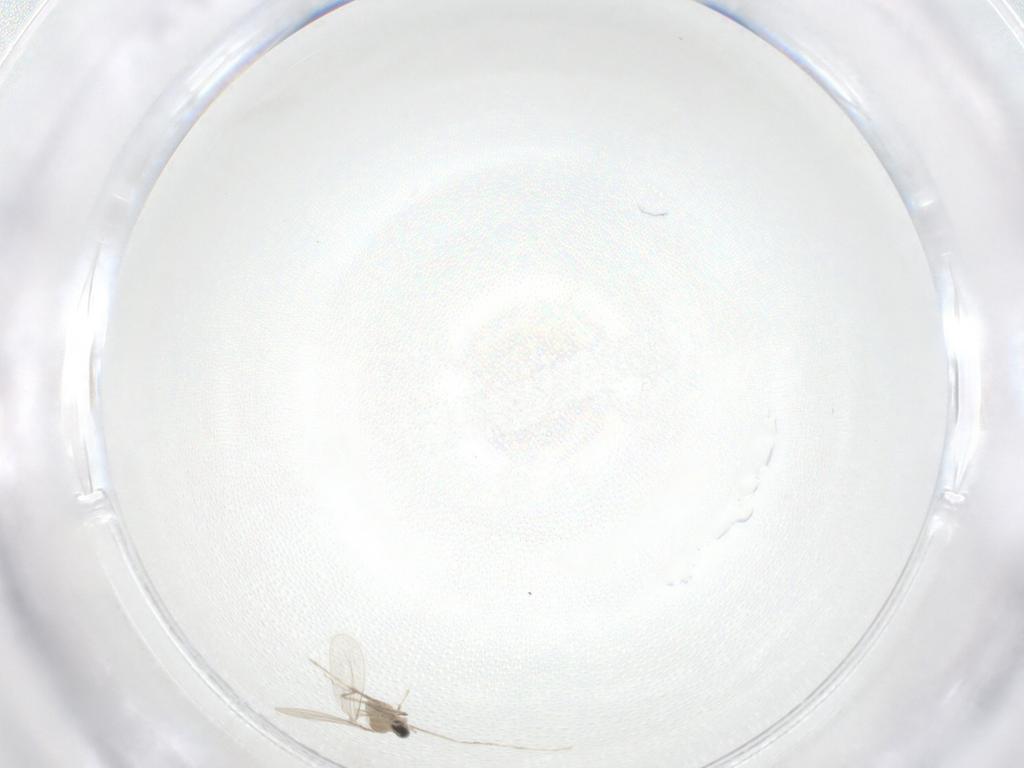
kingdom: Animalia
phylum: Arthropoda
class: Insecta
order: Diptera
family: Cecidomyiidae
